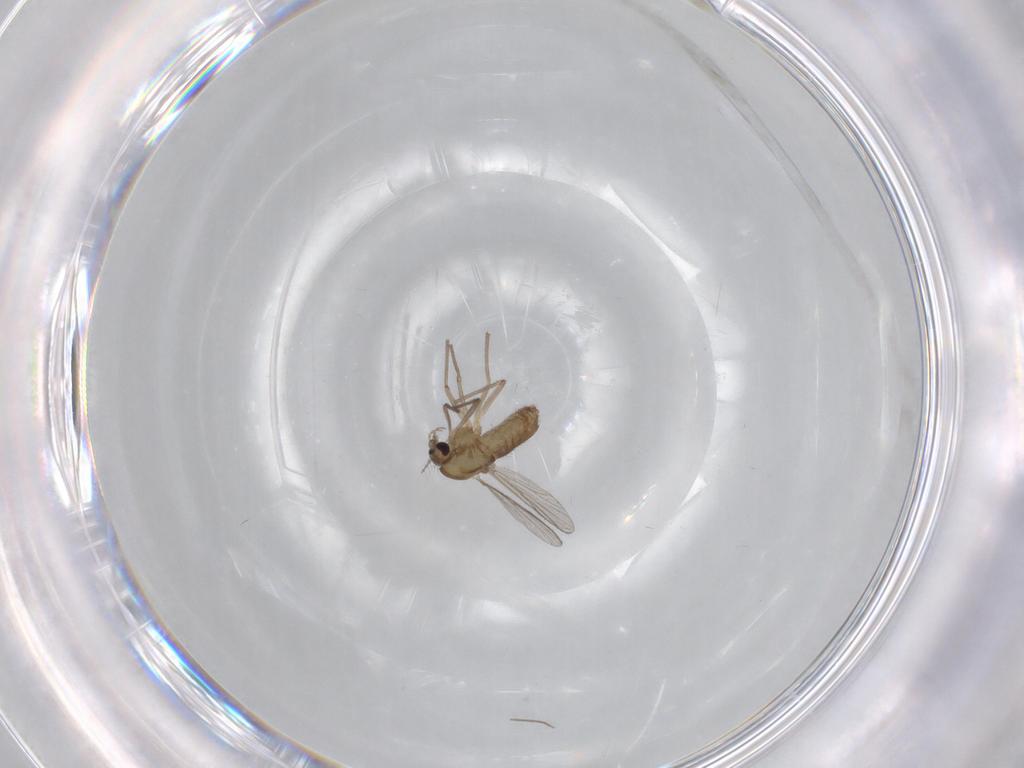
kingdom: Animalia
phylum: Arthropoda
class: Insecta
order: Diptera
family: Chironomidae
